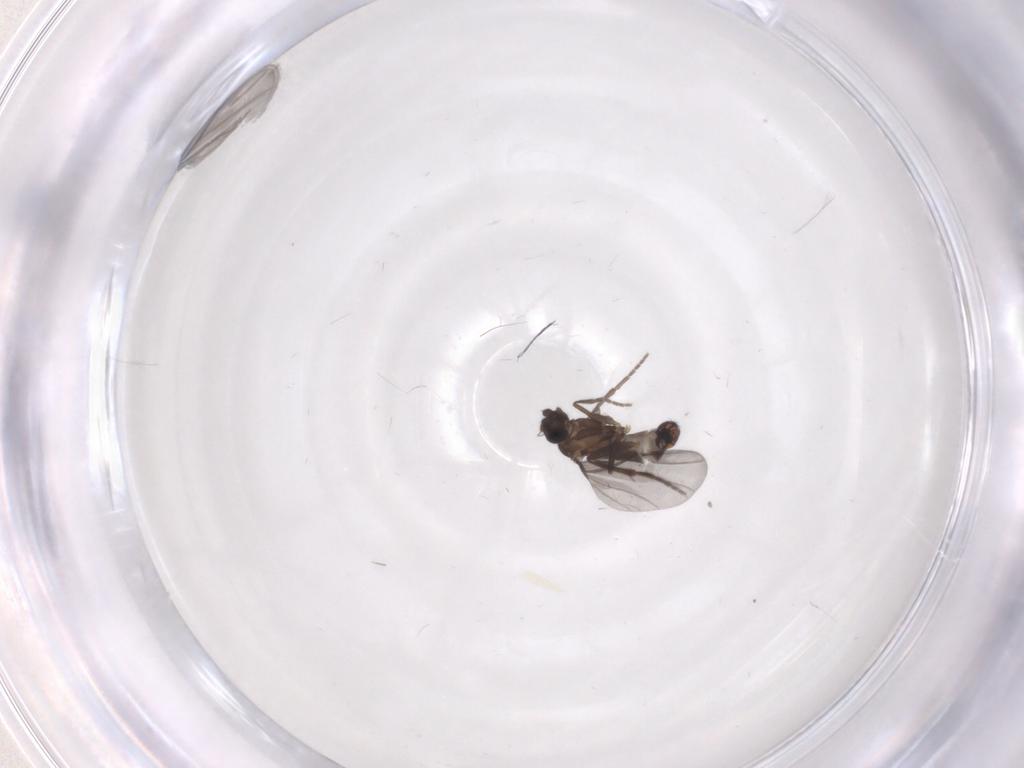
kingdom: Animalia
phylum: Arthropoda
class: Insecta
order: Diptera
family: Phoridae
